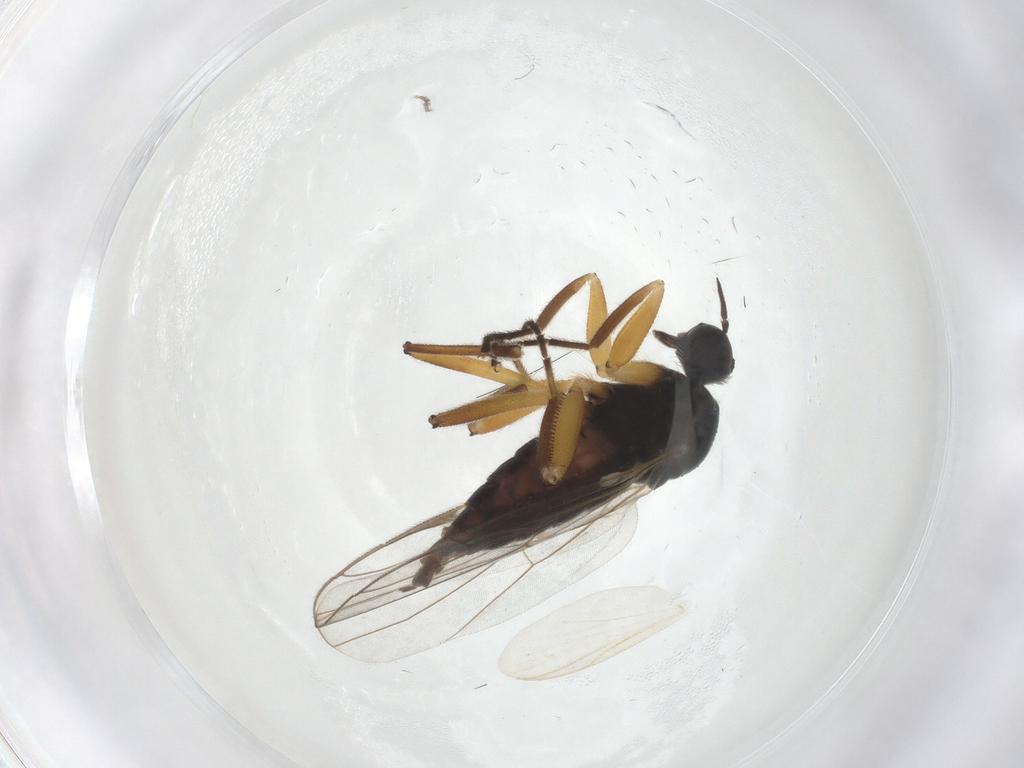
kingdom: Animalia
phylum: Arthropoda
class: Insecta
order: Diptera
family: Hybotidae
